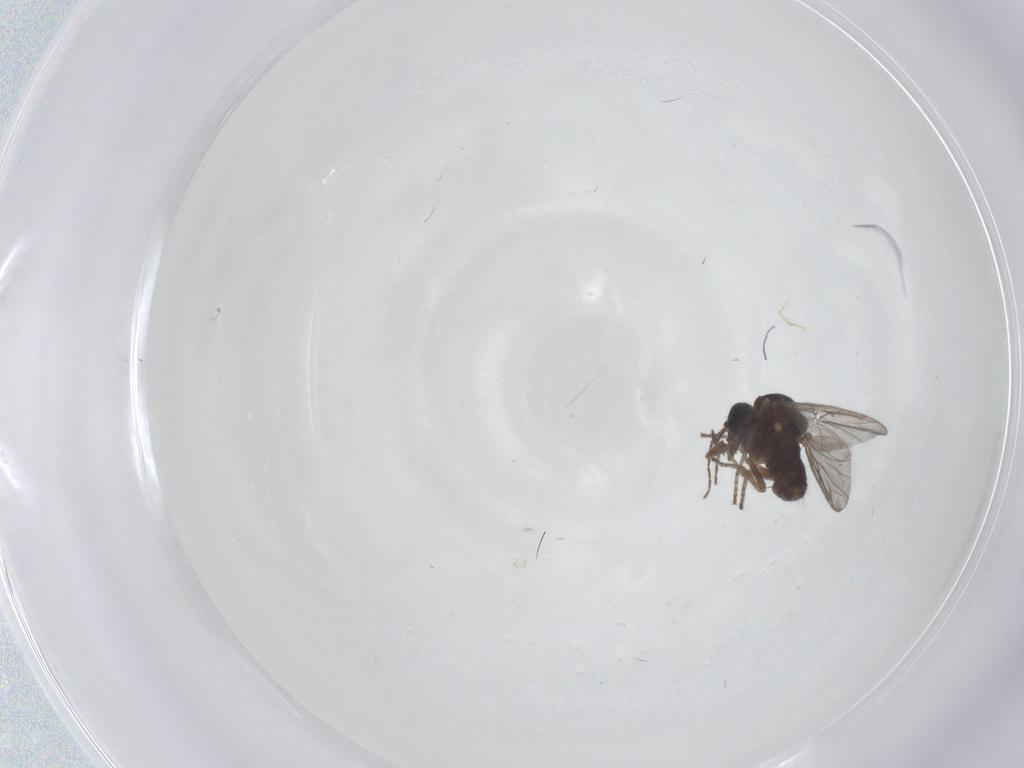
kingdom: Animalia
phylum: Arthropoda
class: Insecta
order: Diptera
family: Ceratopogonidae
